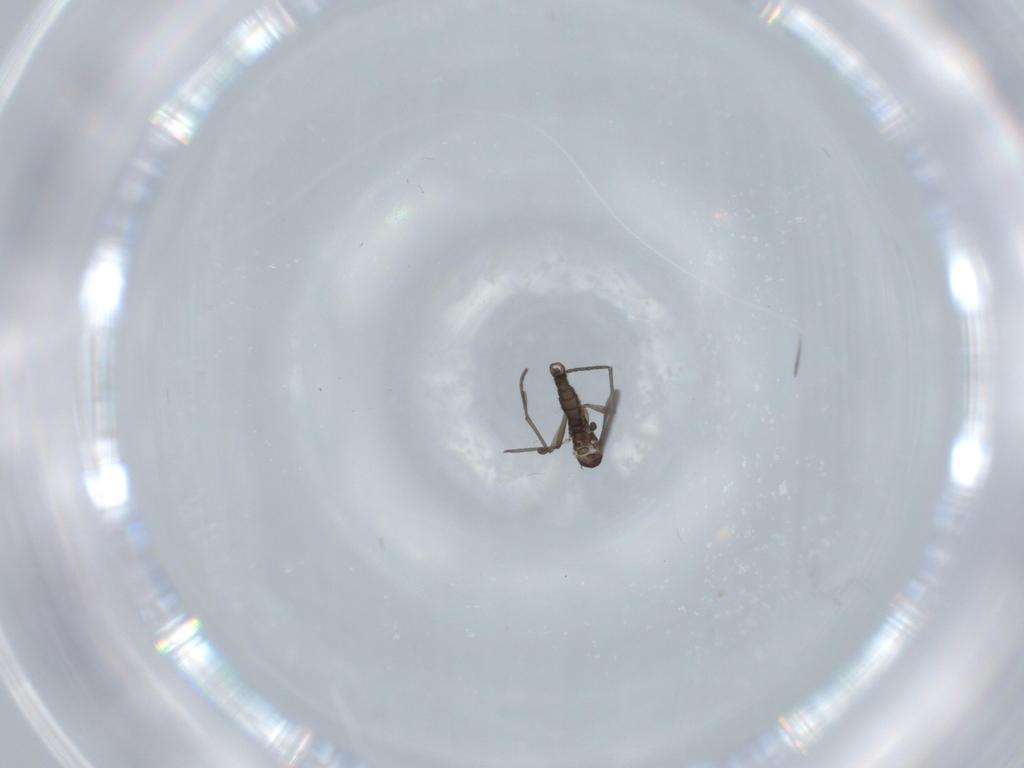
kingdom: Animalia
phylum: Arthropoda
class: Insecta
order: Diptera
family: Sciaridae
